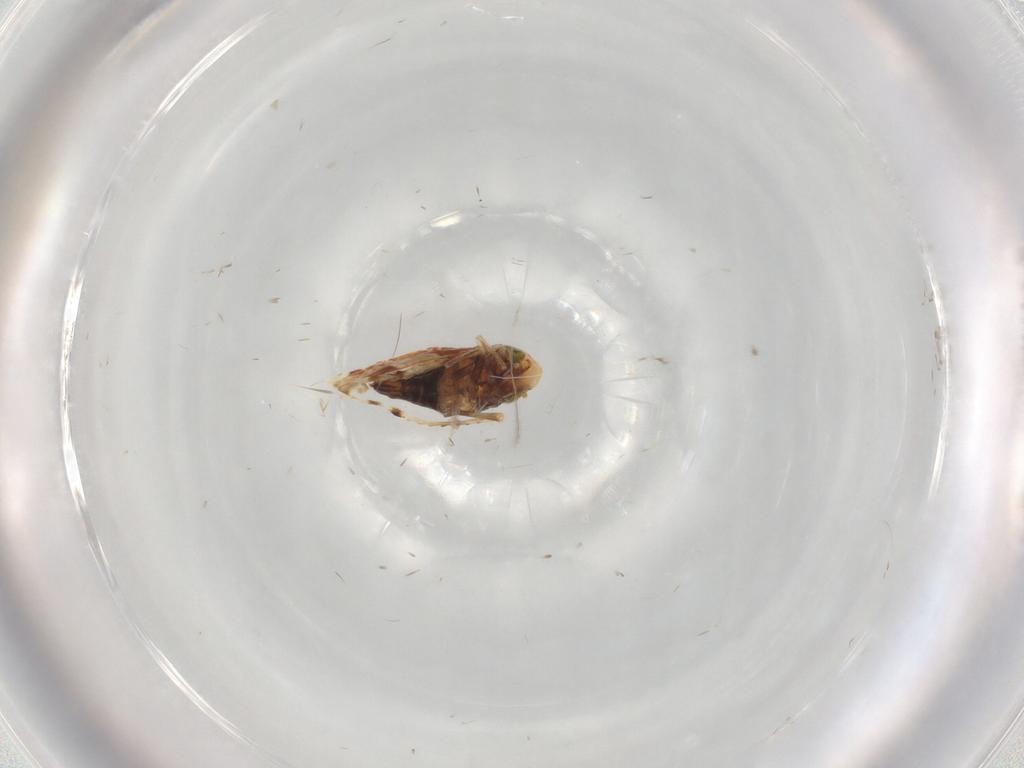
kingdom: Animalia
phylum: Arthropoda
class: Insecta
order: Hemiptera
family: Cicadellidae
